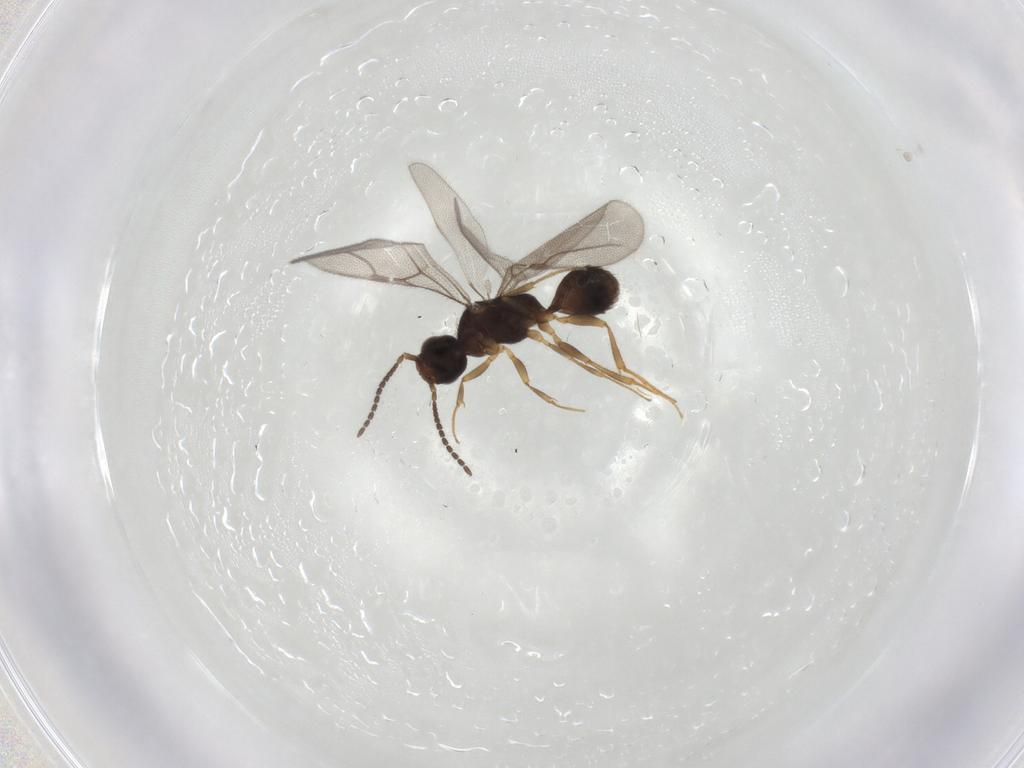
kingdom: Animalia
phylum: Arthropoda
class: Insecta
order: Hymenoptera
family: Bethylidae
